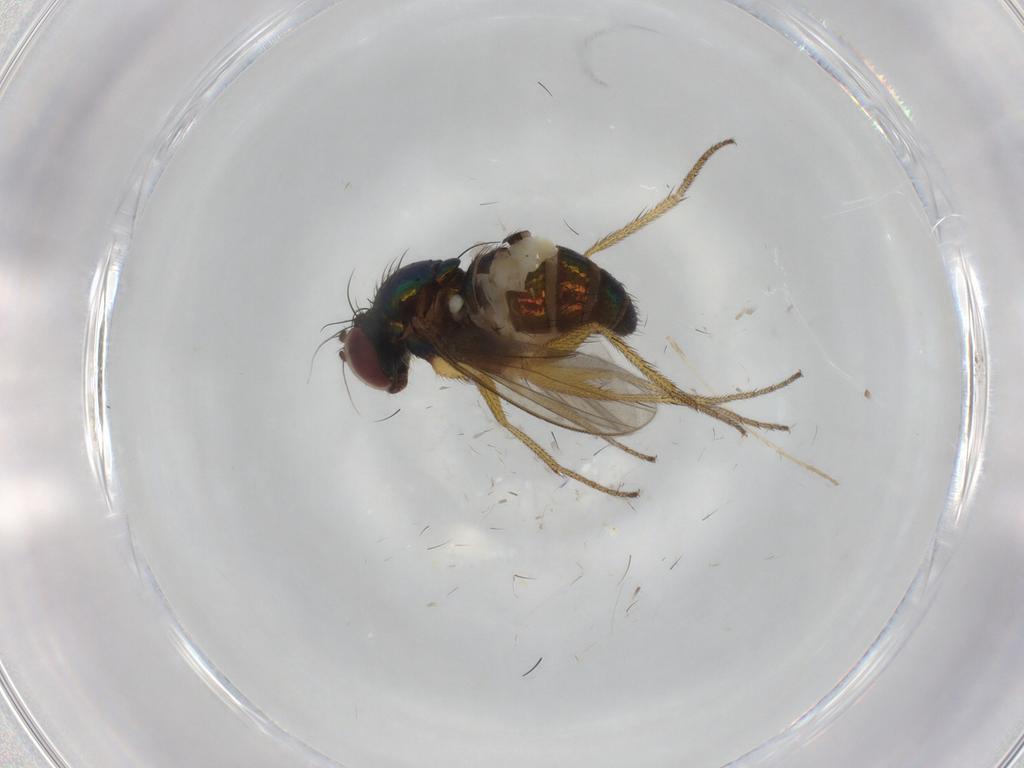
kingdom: Animalia
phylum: Arthropoda
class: Insecta
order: Diptera
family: Dolichopodidae
